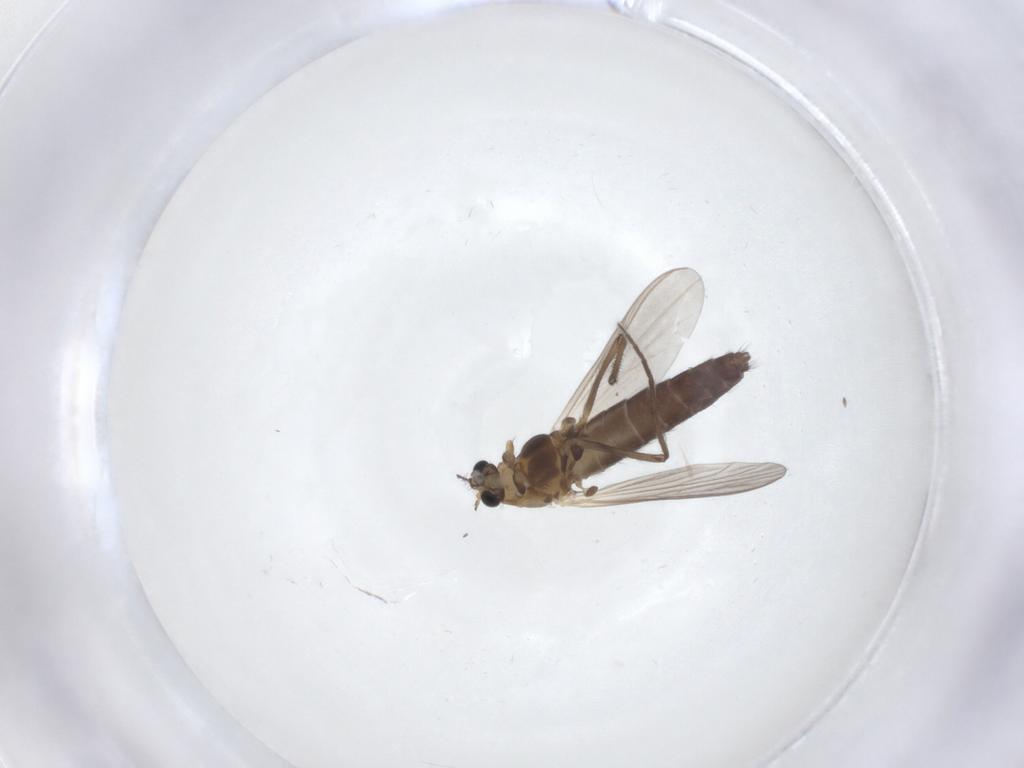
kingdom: Animalia
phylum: Arthropoda
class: Insecta
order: Diptera
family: Chironomidae
